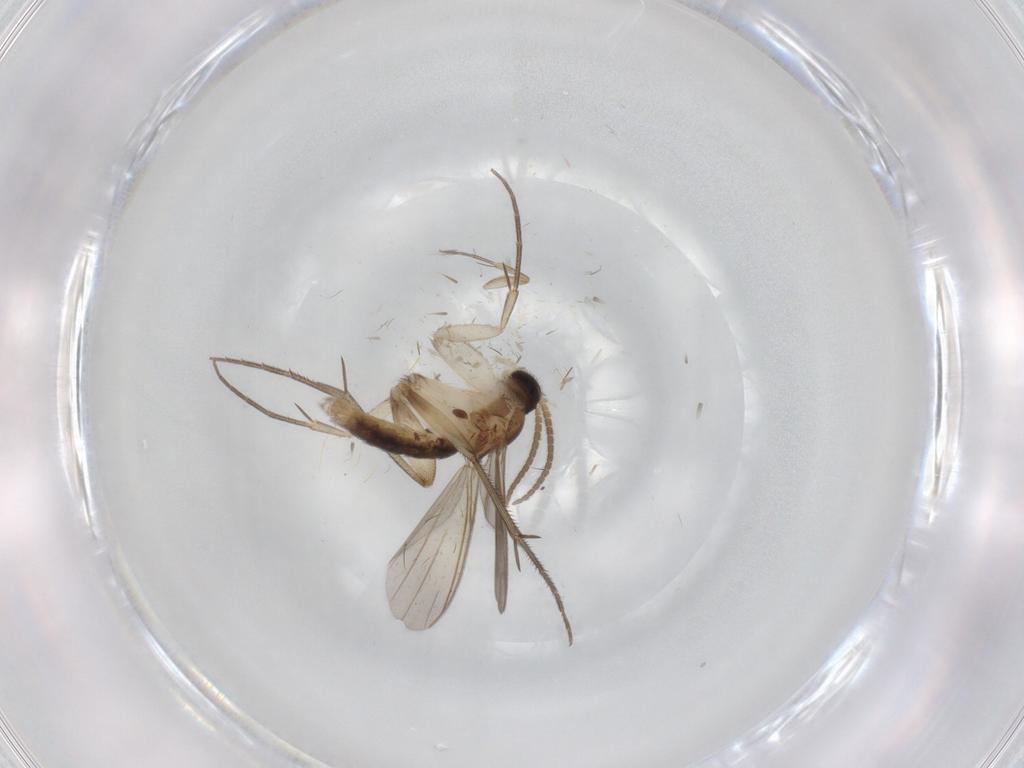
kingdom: Animalia
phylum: Arthropoda
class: Insecta
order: Diptera
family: Mycetophilidae
